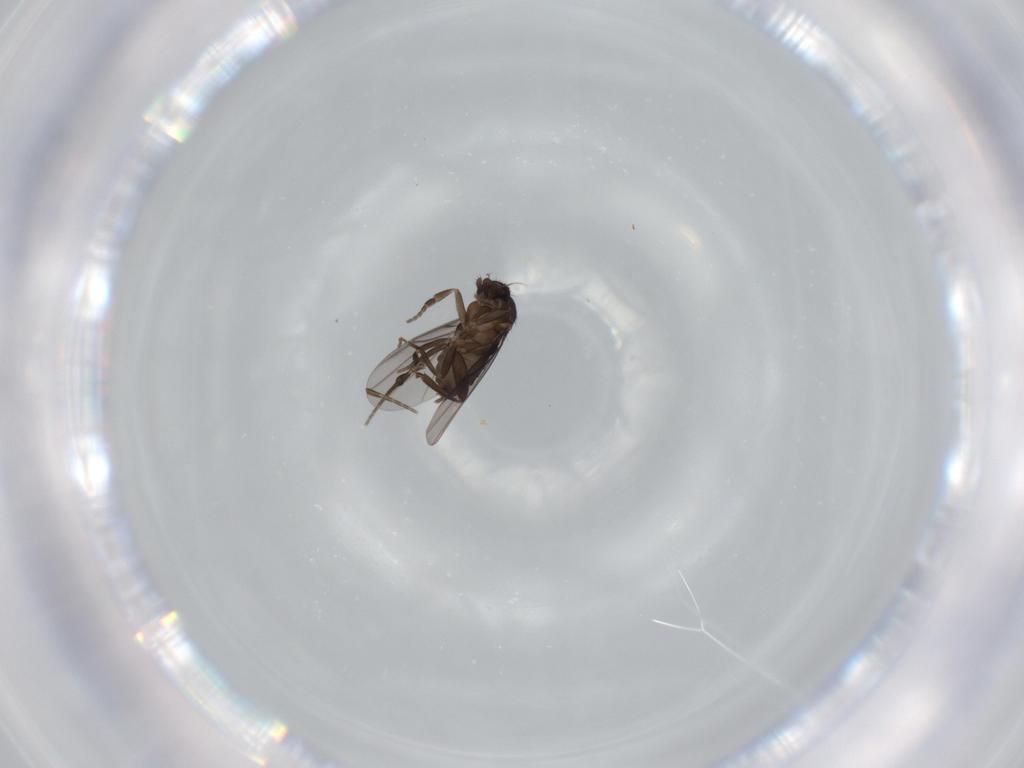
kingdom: Animalia
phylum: Arthropoda
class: Insecta
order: Diptera
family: Phoridae
